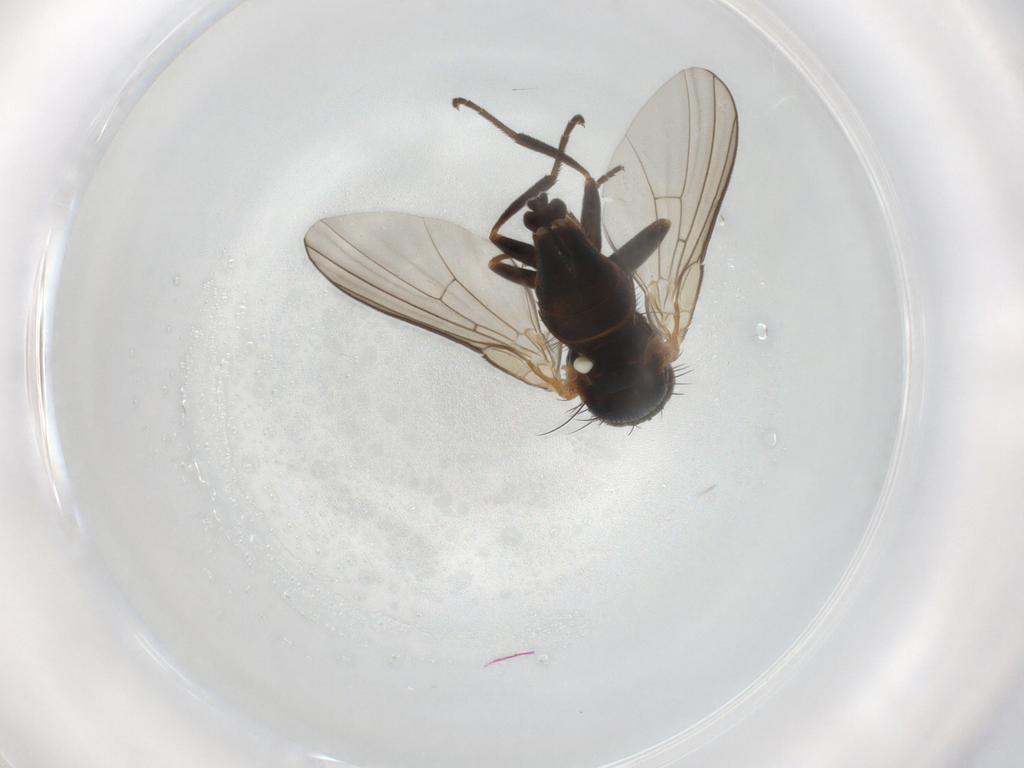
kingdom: Animalia
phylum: Arthropoda
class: Insecta
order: Diptera
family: Agromyzidae
